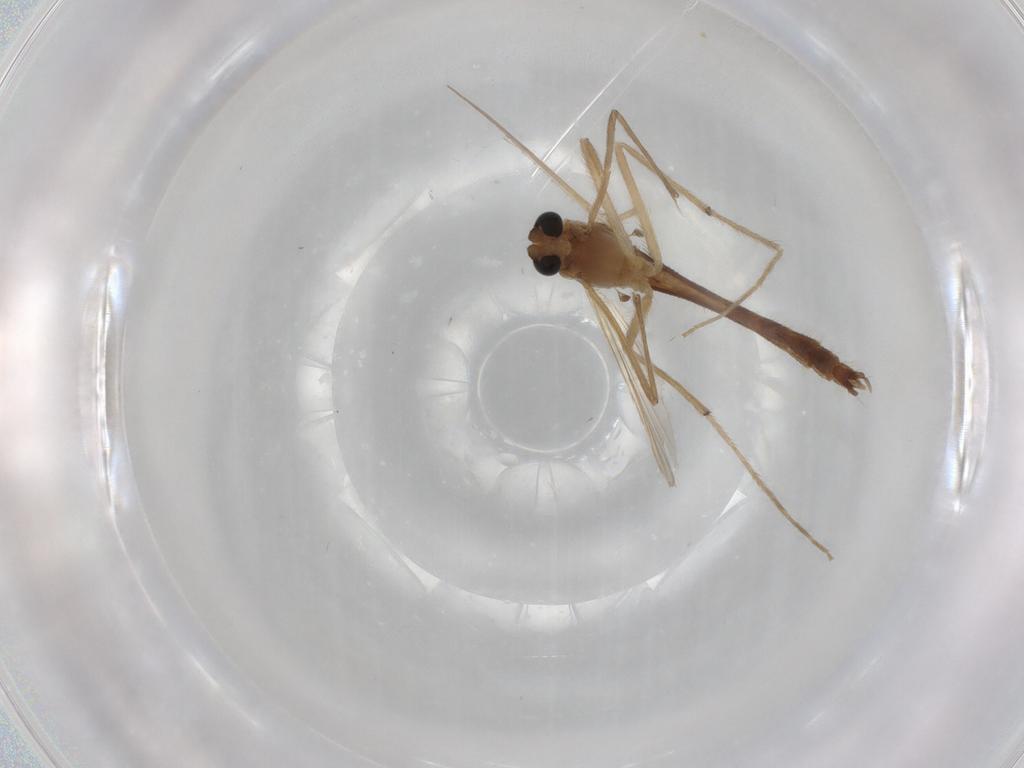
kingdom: Animalia
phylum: Arthropoda
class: Insecta
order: Diptera
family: Chironomidae
